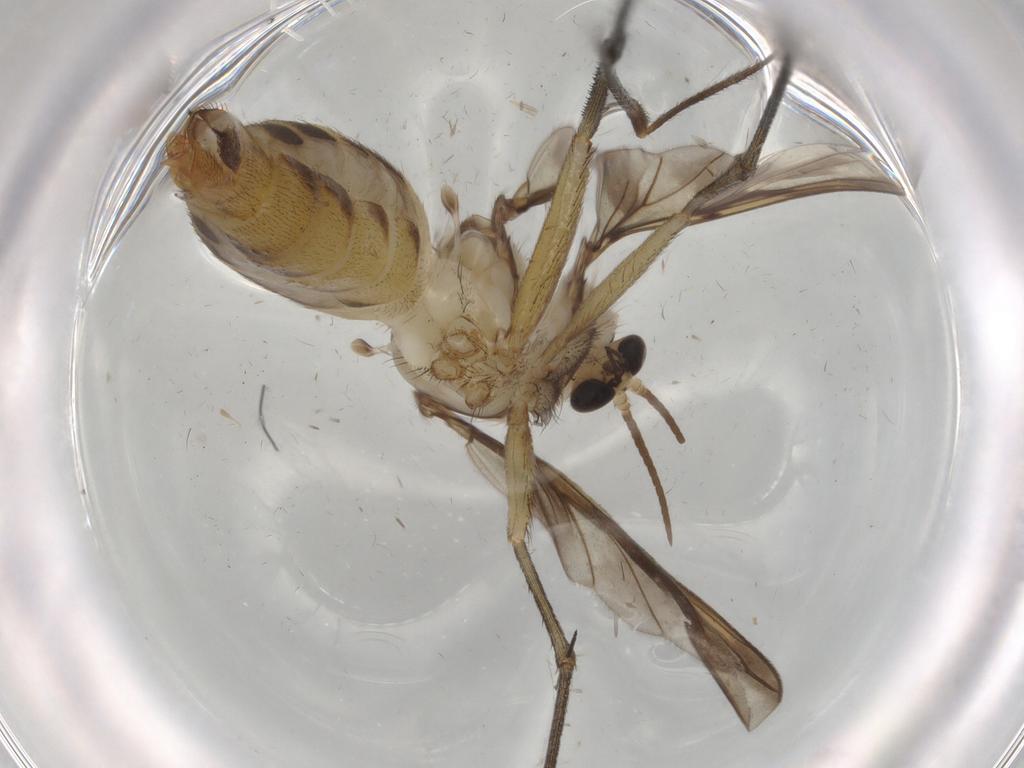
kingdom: Animalia
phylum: Arthropoda
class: Insecta
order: Diptera
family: Mycetophilidae
